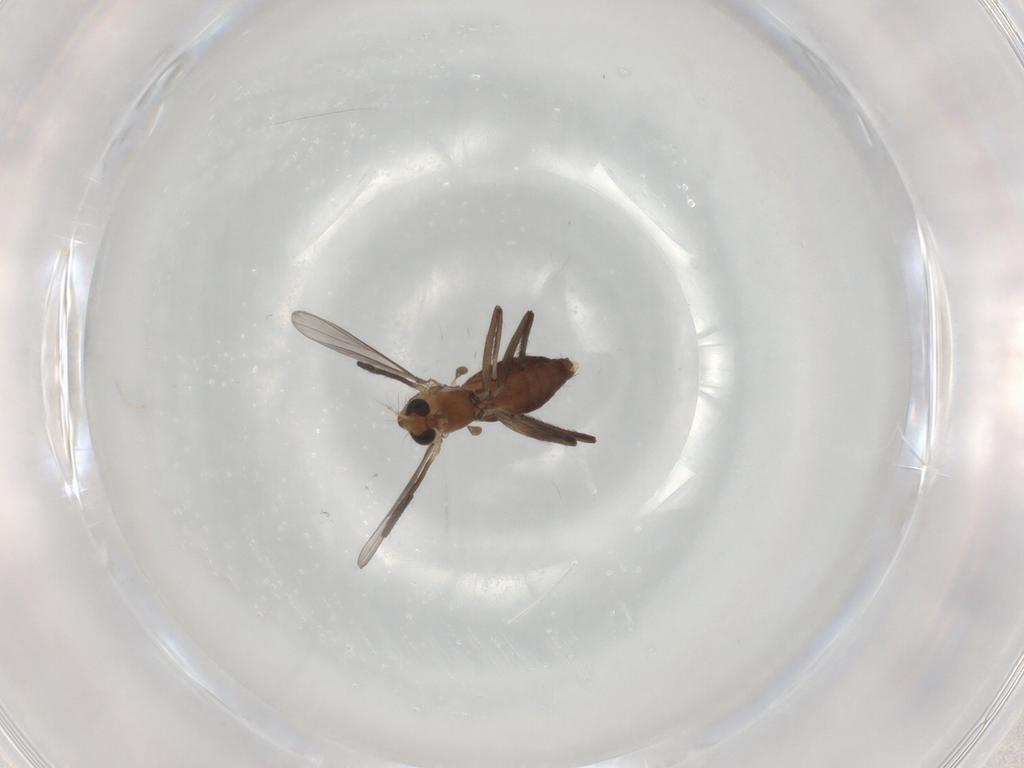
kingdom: Animalia
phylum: Arthropoda
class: Insecta
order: Diptera
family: Chironomidae
